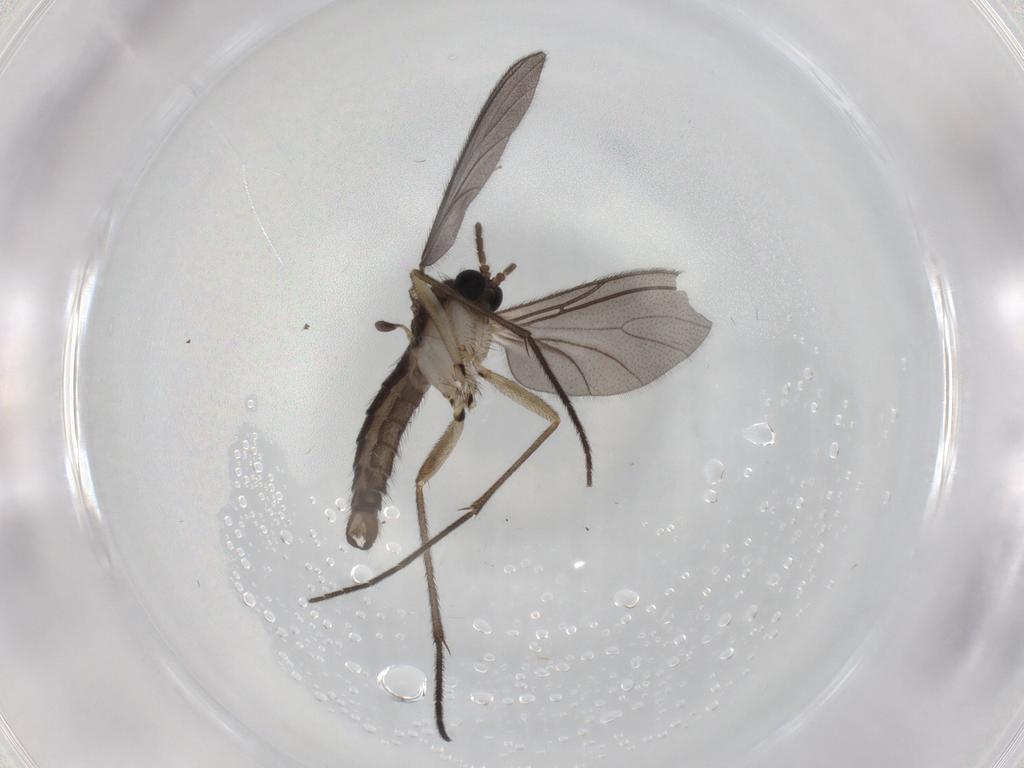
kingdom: Animalia
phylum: Arthropoda
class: Insecta
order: Diptera
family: Sciaridae
